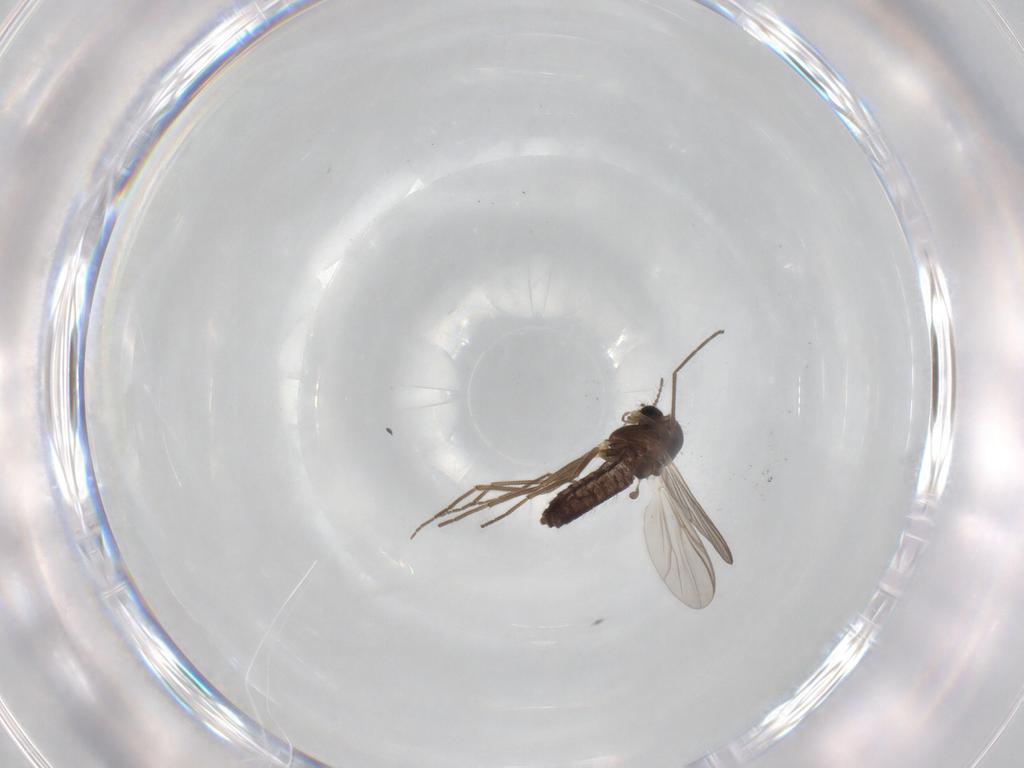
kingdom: Animalia
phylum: Arthropoda
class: Insecta
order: Diptera
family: Chironomidae
